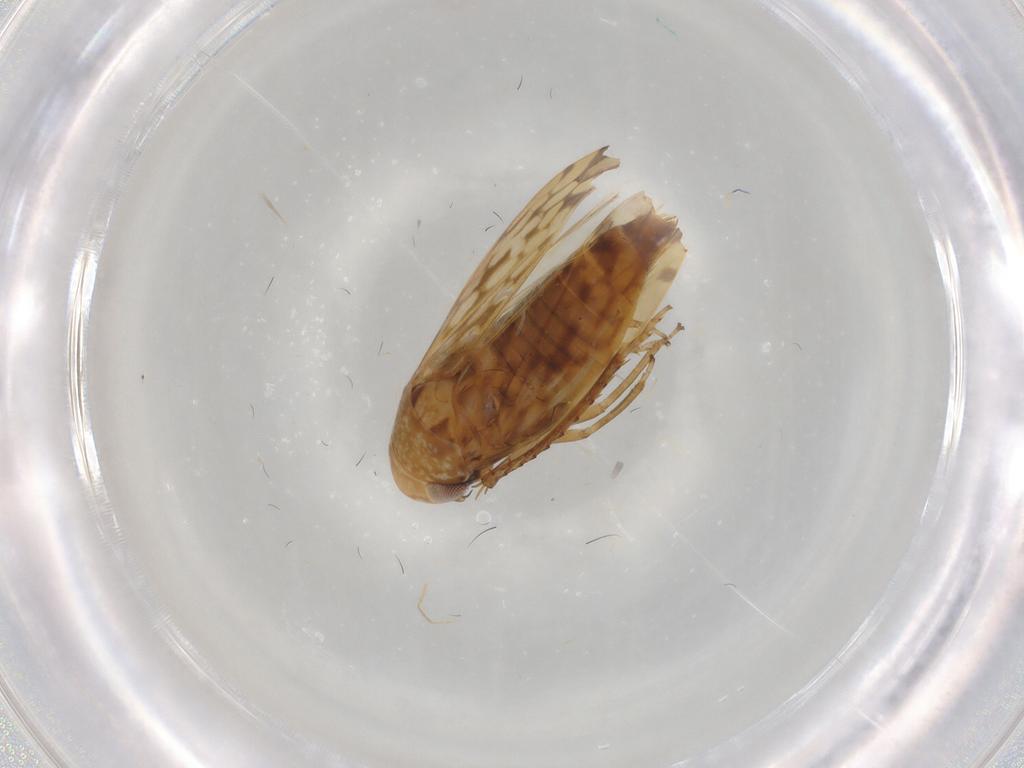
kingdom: Animalia
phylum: Arthropoda
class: Insecta
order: Hemiptera
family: Cicadellidae
